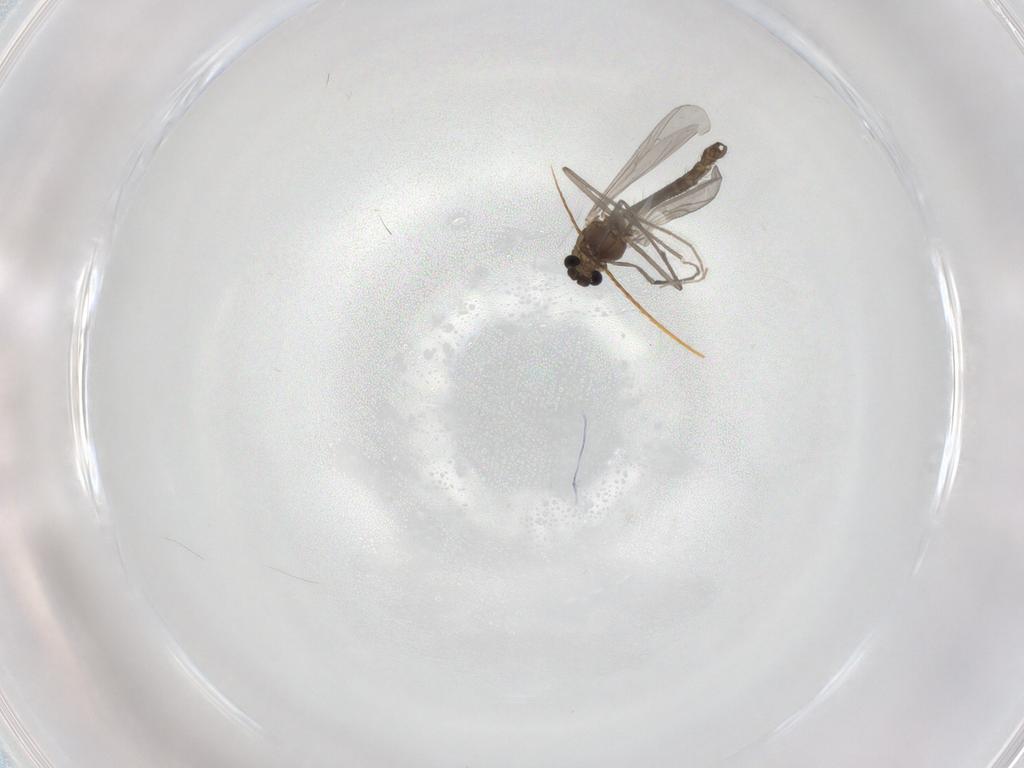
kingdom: Animalia
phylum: Arthropoda
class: Insecta
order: Diptera
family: Chironomidae
